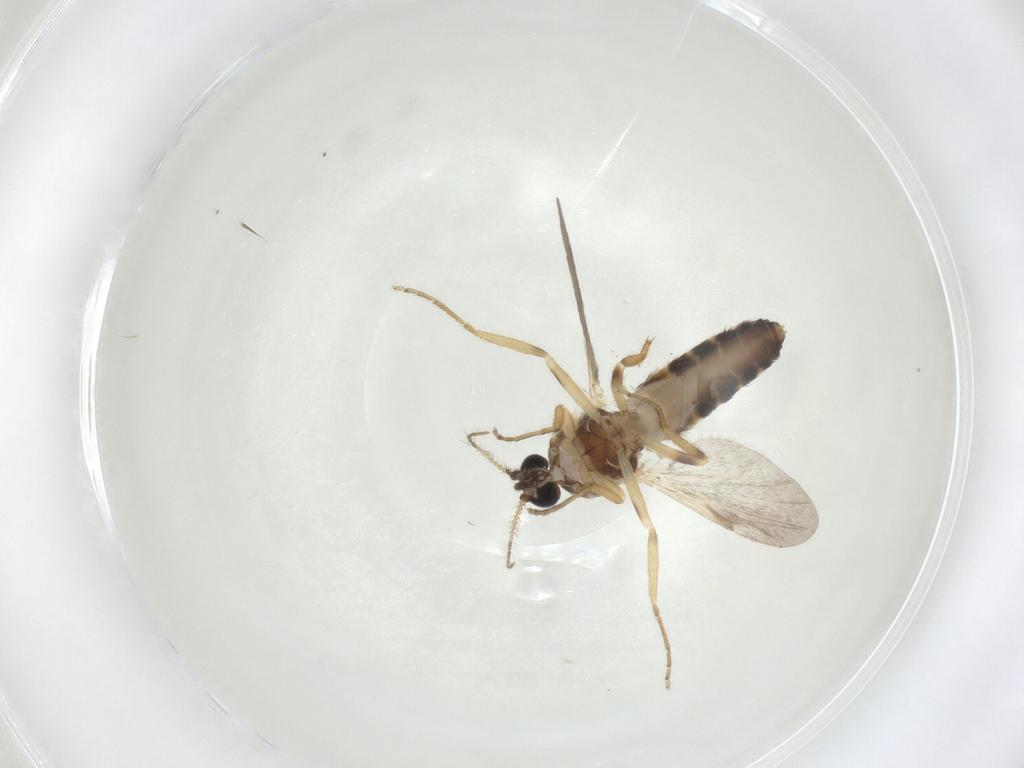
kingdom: Animalia
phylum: Arthropoda
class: Insecta
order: Diptera
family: Ceratopogonidae
